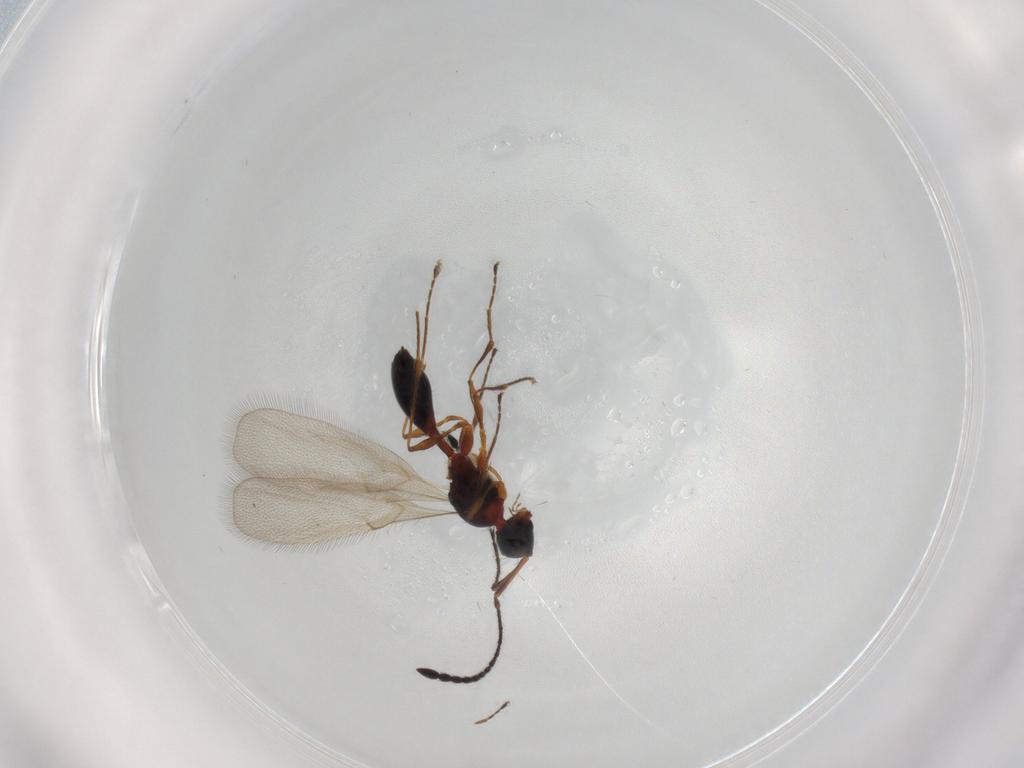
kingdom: Animalia
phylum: Arthropoda
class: Insecta
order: Hymenoptera
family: Diapriidae
